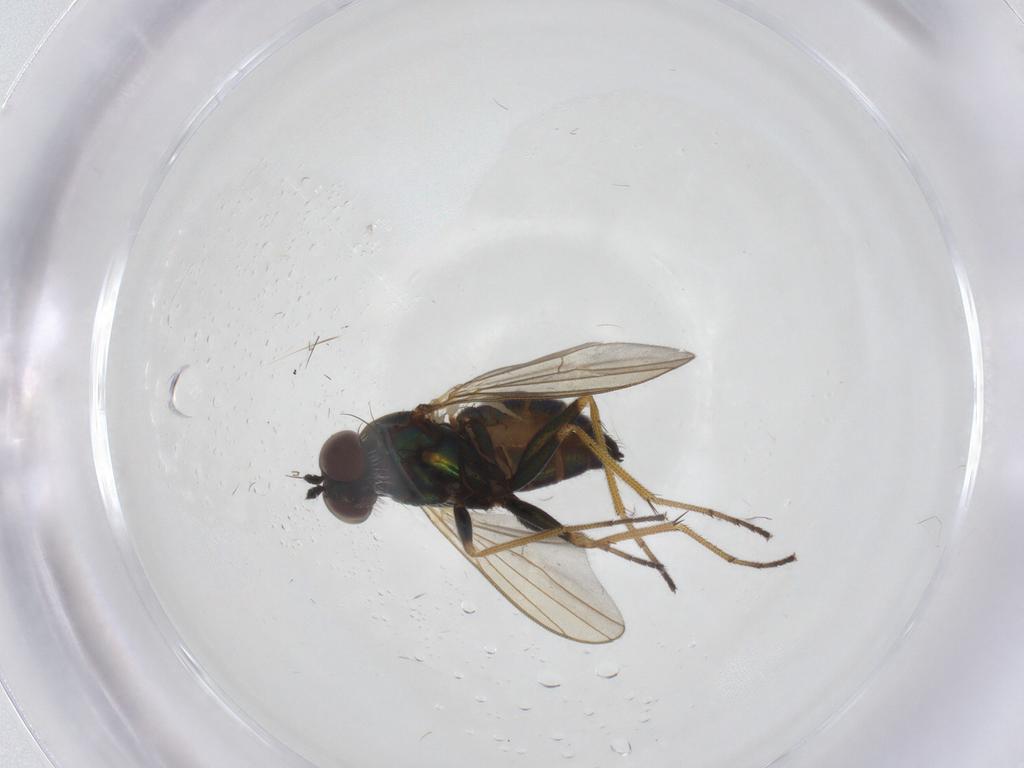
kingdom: Animalia
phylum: Arthropoda
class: Insecta
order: Diptera
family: Dolichopodidae
